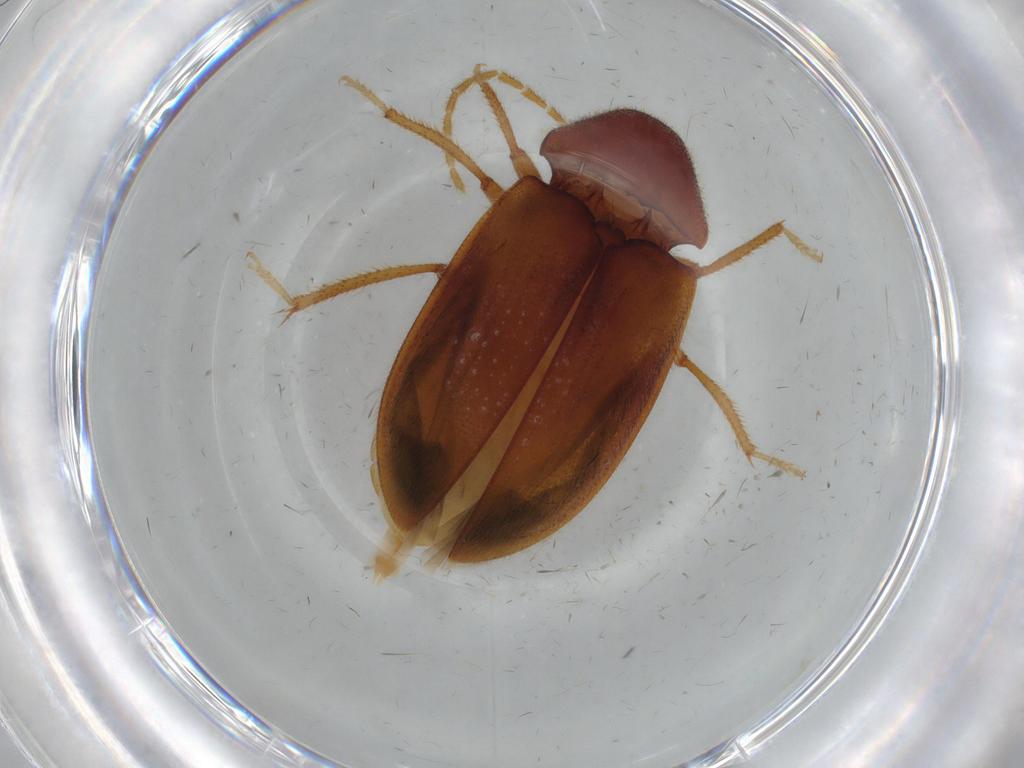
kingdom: Animalia
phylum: Arthropoda
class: Insecta
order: Coleoptera
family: Ptilodactylidae
